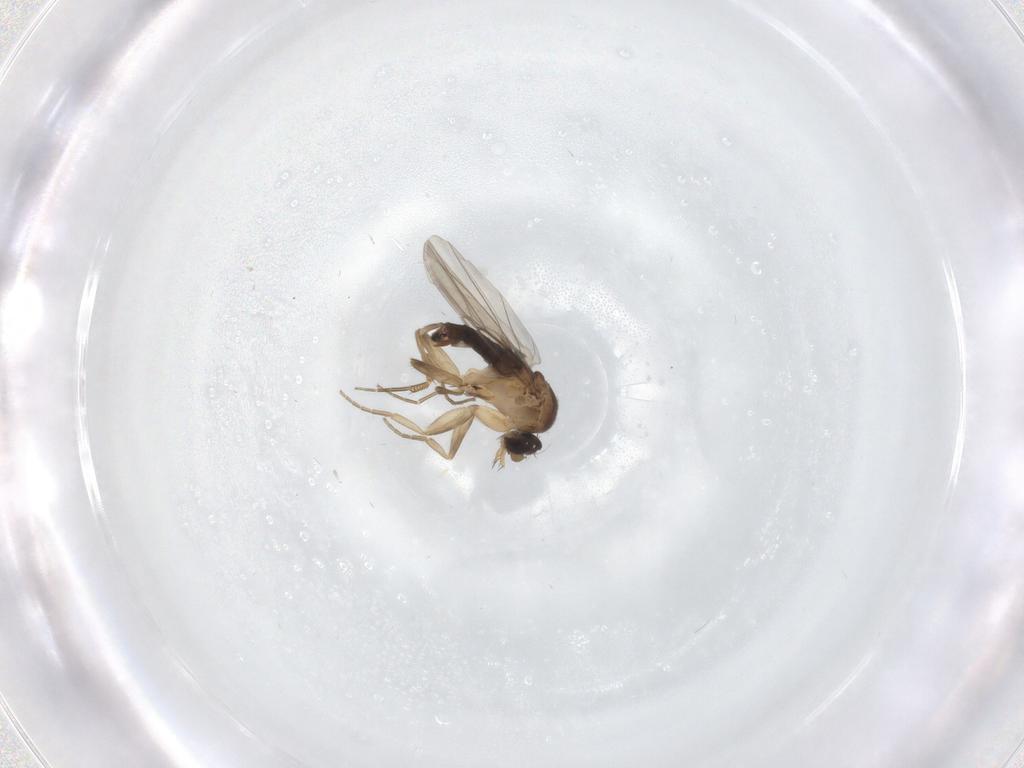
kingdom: Animalia
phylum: Arthropoda
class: Insecta
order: Diptera
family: Phoridae
